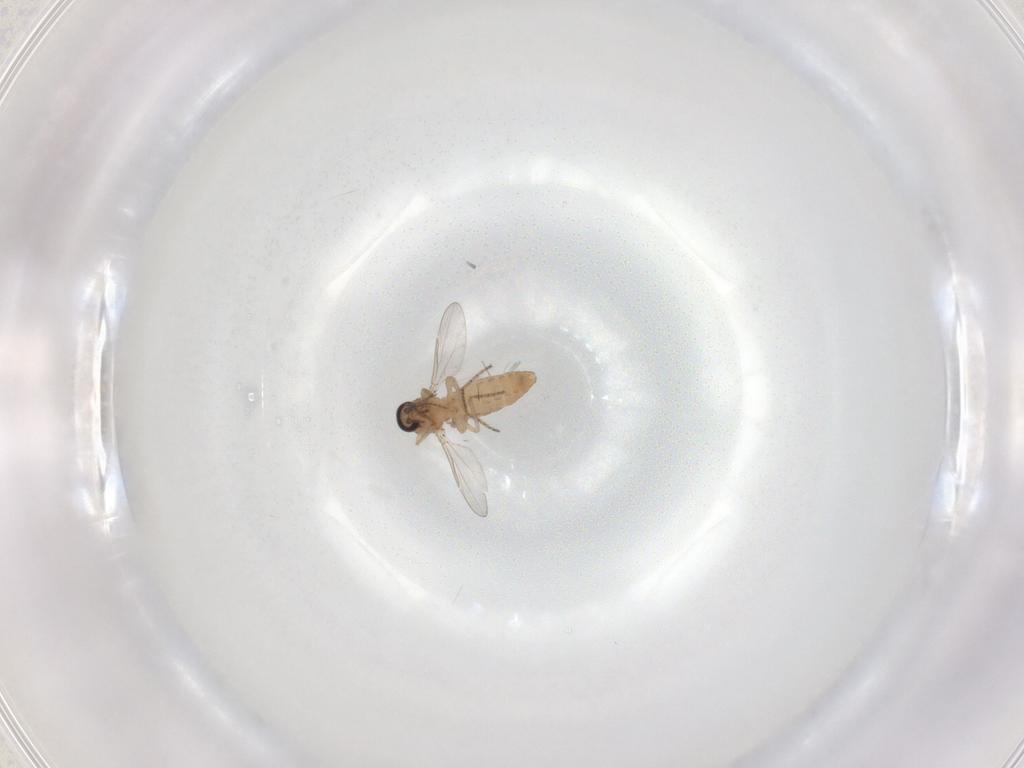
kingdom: Animalia
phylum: Arthropoda
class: Insecta
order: Diptera
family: Ceratopogonidae
